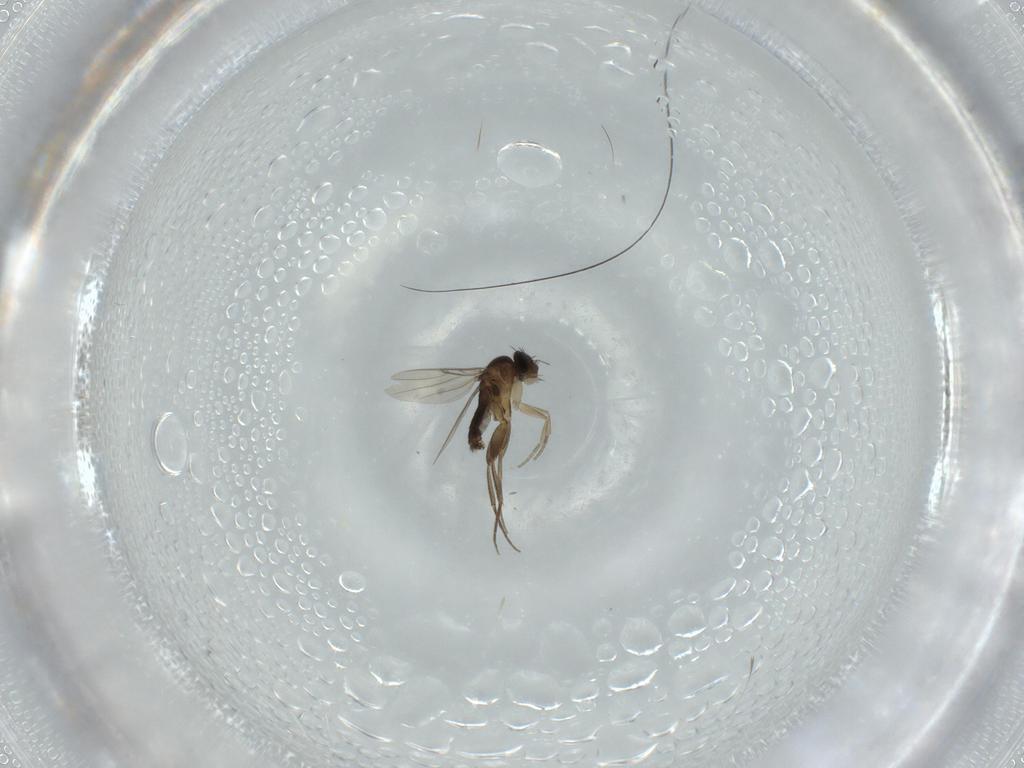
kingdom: Animalia
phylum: Arthropoda
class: Insecta
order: Diptera
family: Phoridae
